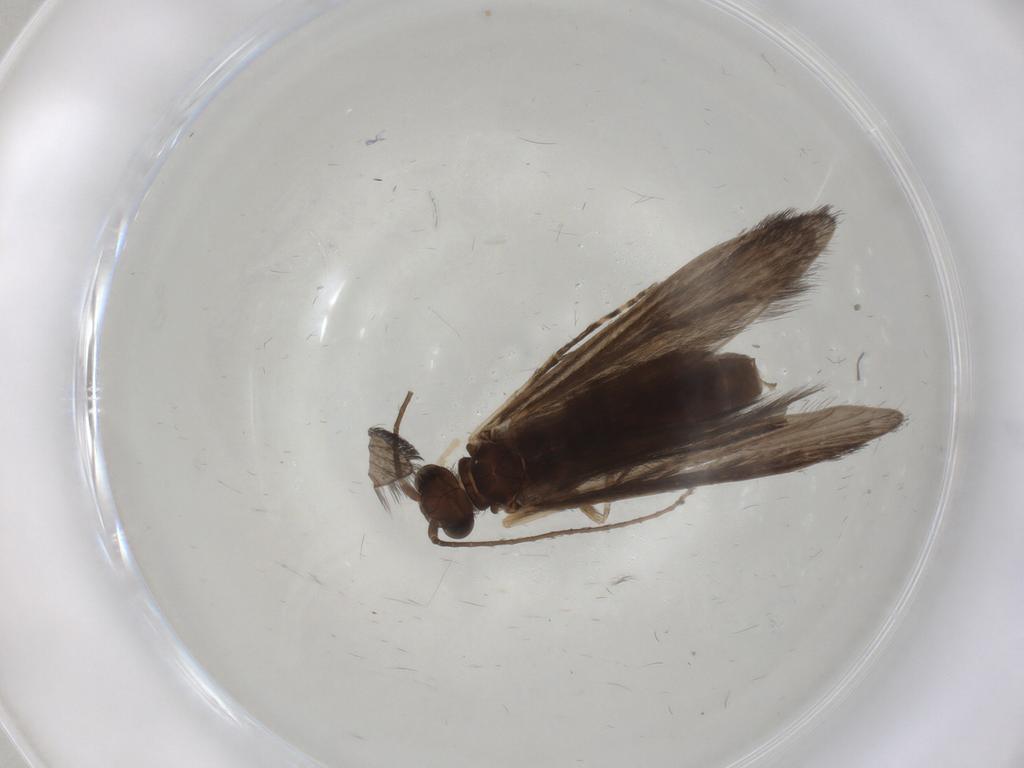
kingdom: Animalia
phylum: Arthropoda
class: Insecta
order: Trichoptera
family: Xiphocentronidae
